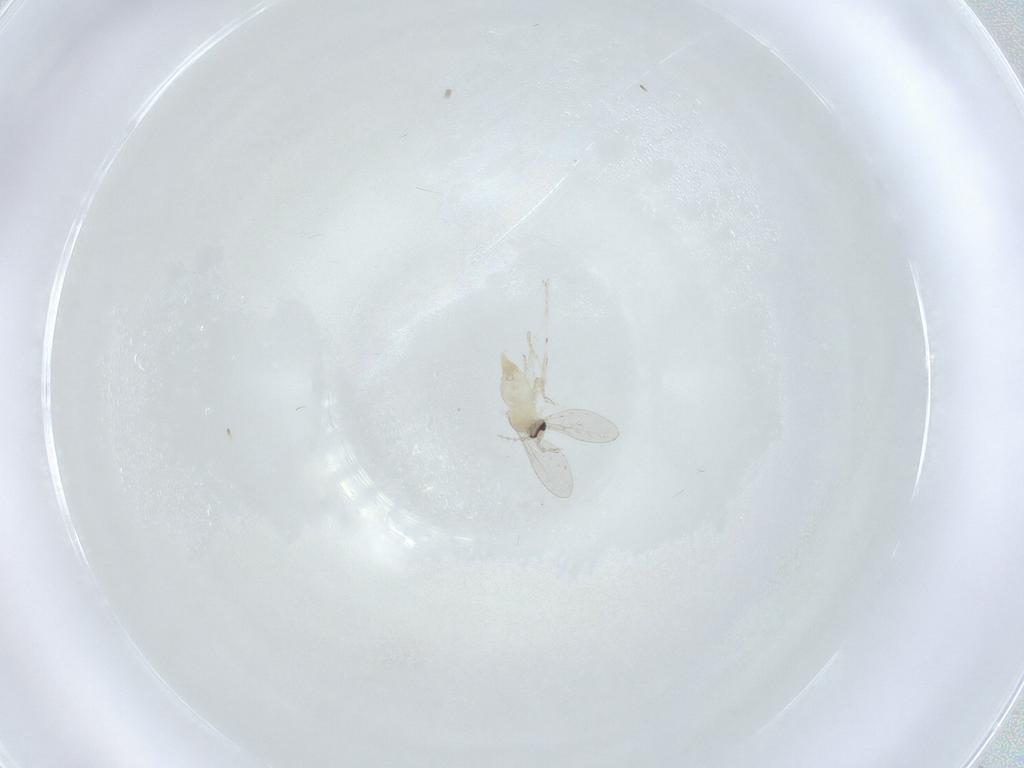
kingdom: Animalia
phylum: Arthropoda
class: Insecta
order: Diptera
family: Cecidomyiidae
